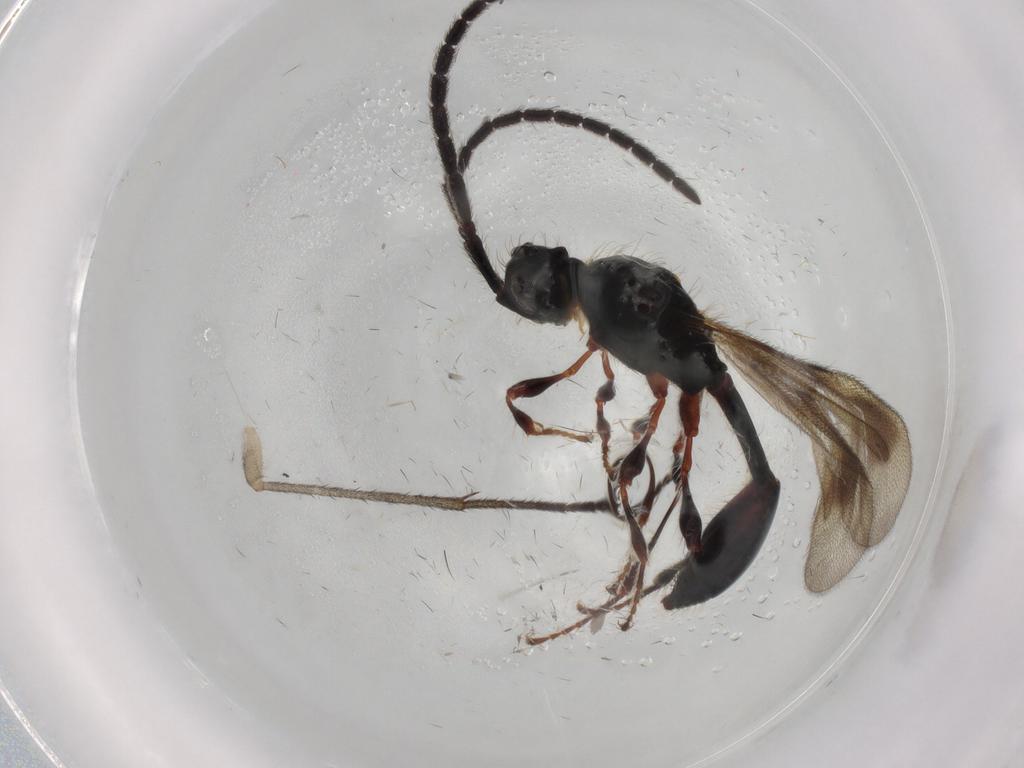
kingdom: Animalia
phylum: Arthropoda
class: Insecta
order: Hymenoptera
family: Diapriidae
